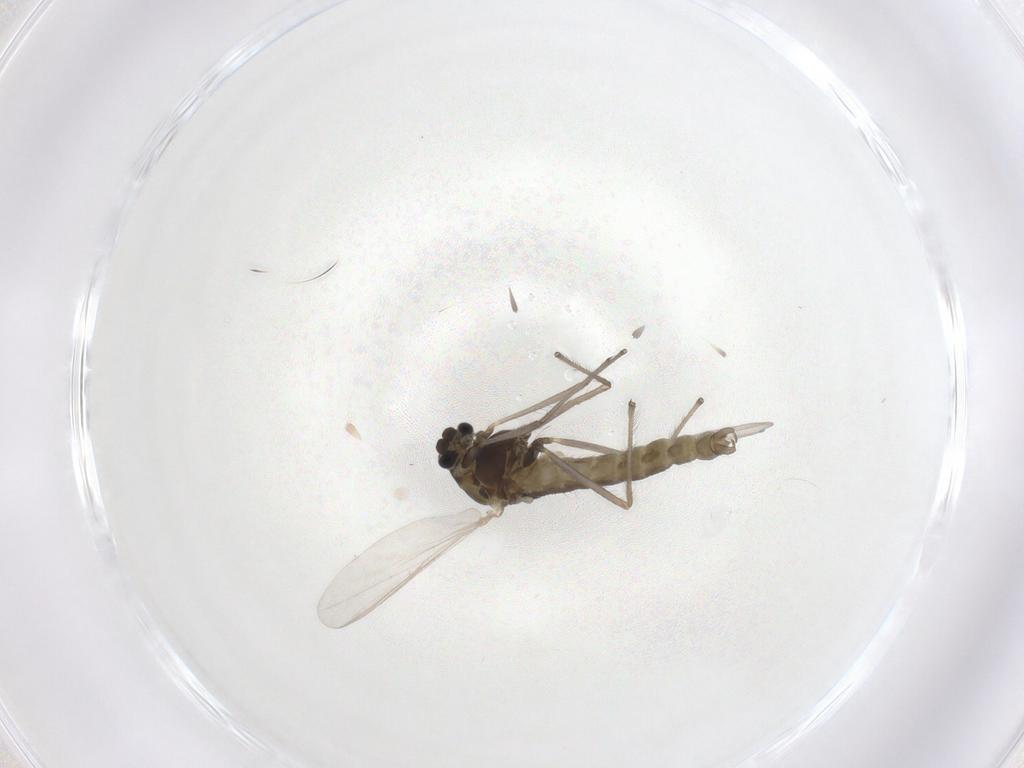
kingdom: Animalia
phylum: Arthropoda
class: Insecta
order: Diptera
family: Chironomidae
